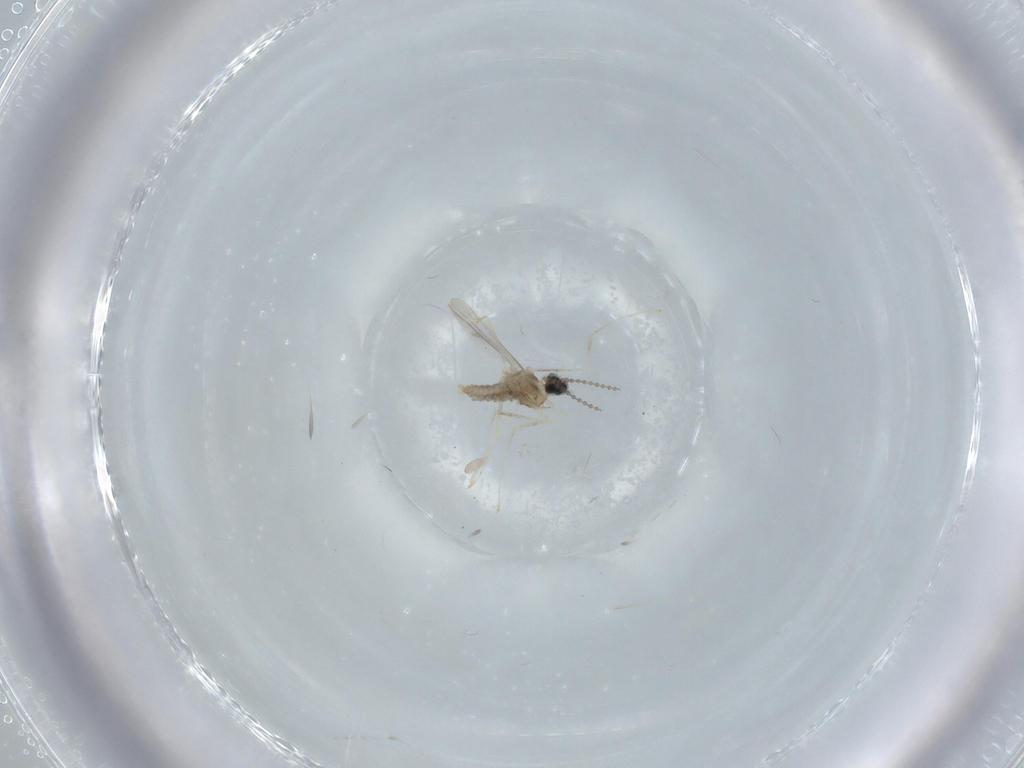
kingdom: Animalia
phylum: Arthropoda
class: Insecta
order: Diptera
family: Cecidomyiidae
